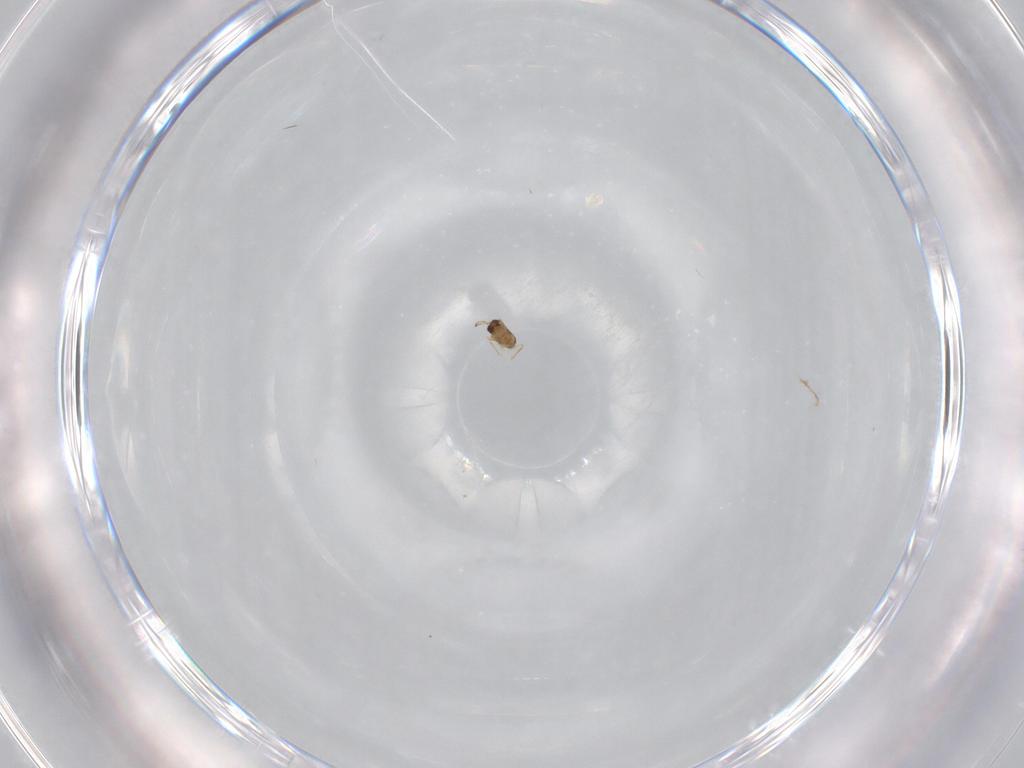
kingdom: Animalia
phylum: Arthropoda
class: Insecta
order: Hymenoptera
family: Mymaridae
